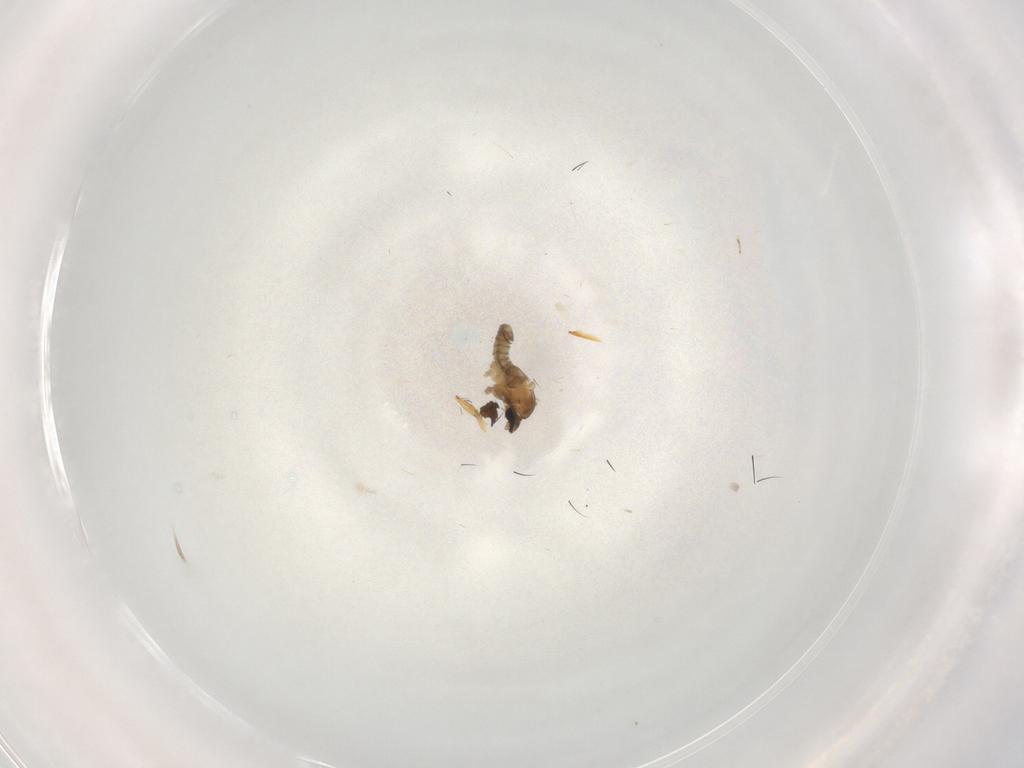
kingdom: Animalia
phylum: Arthropoda
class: Insecta
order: Diptera
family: Anthomyiidae
